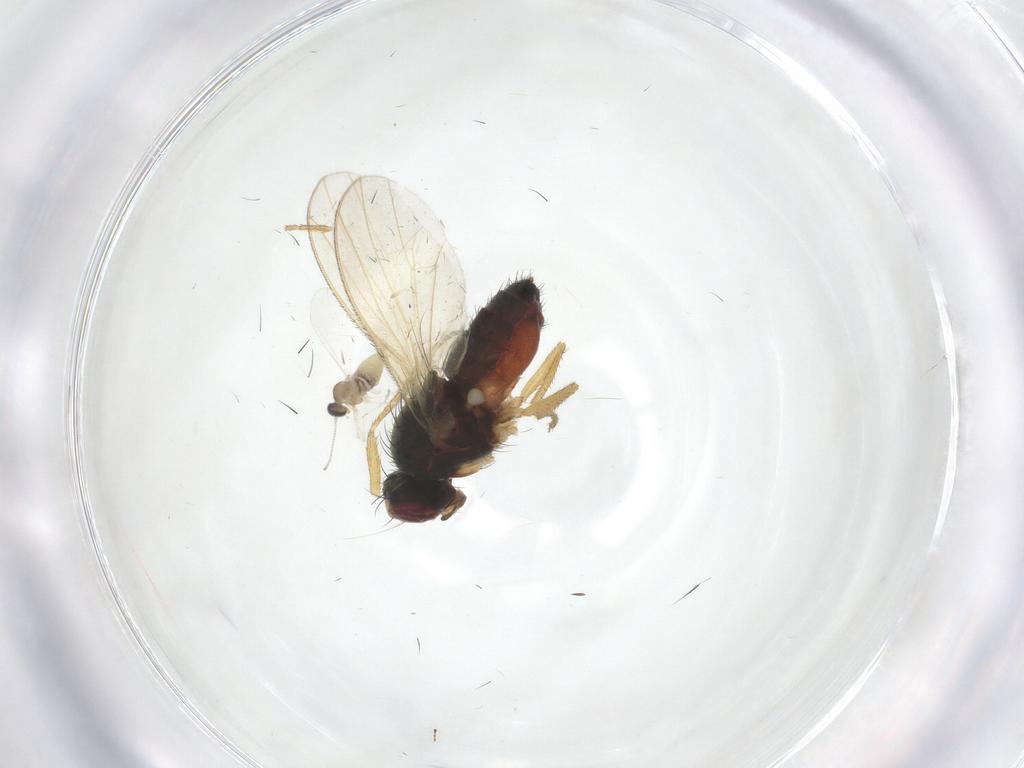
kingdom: Animalia
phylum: Arthropoda
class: Insecta
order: Diptera
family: Heleomyzidae
